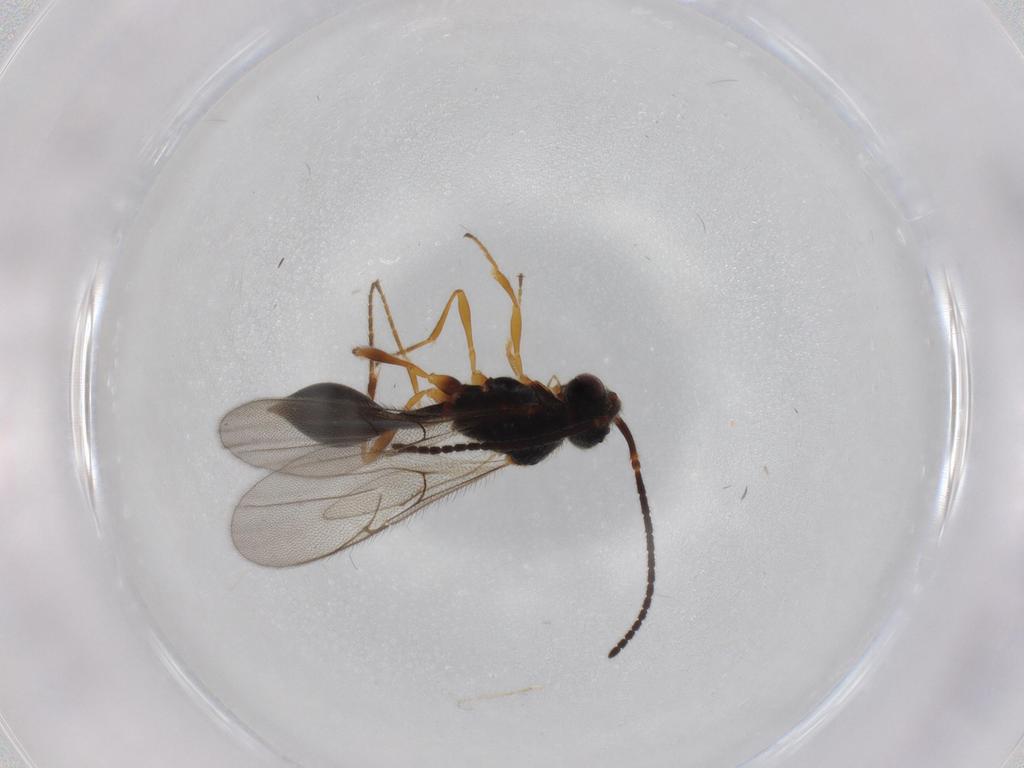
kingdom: Animalia
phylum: Arthropoda
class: Insecta
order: Hymenoptera
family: Diapriidae
